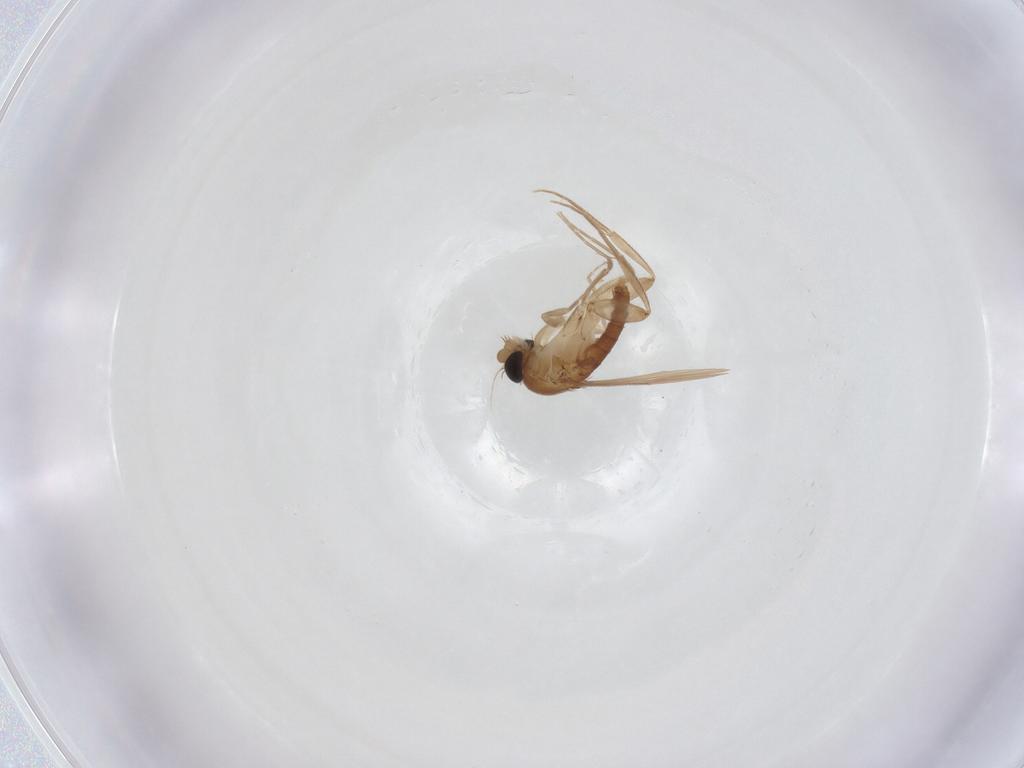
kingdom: Animalia
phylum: Arthropoda
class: Insecta
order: Diptera
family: Phoridae
